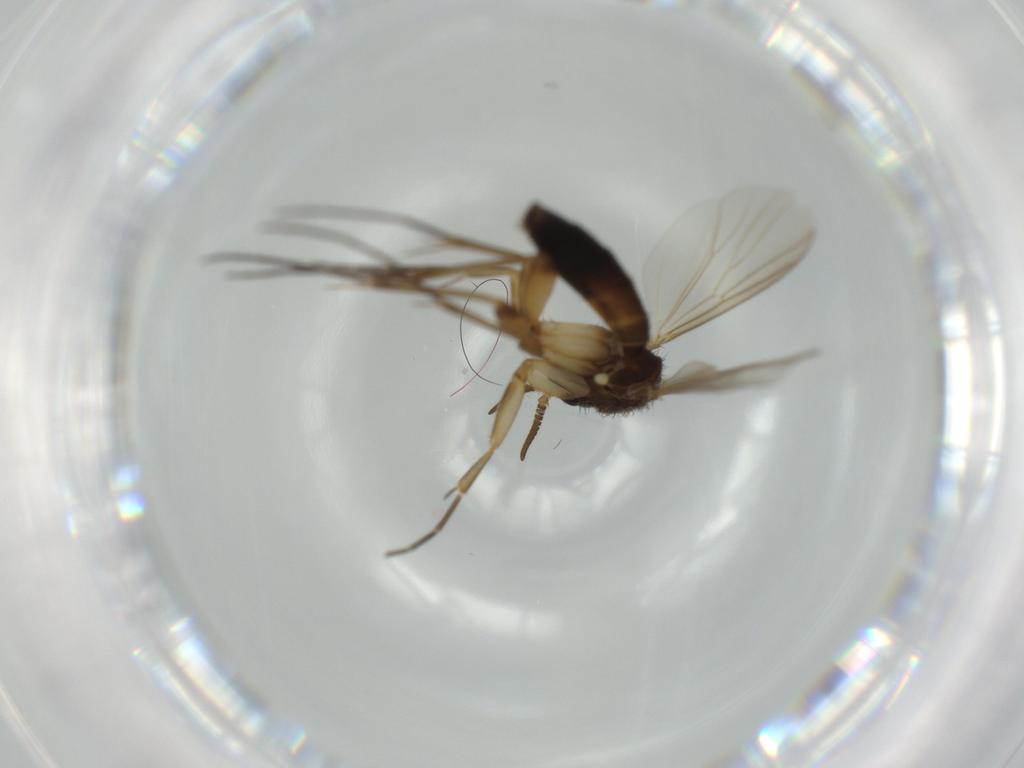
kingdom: Animalia
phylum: Arthropoda
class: Insecta
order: Diptera
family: Mycetophilidae
